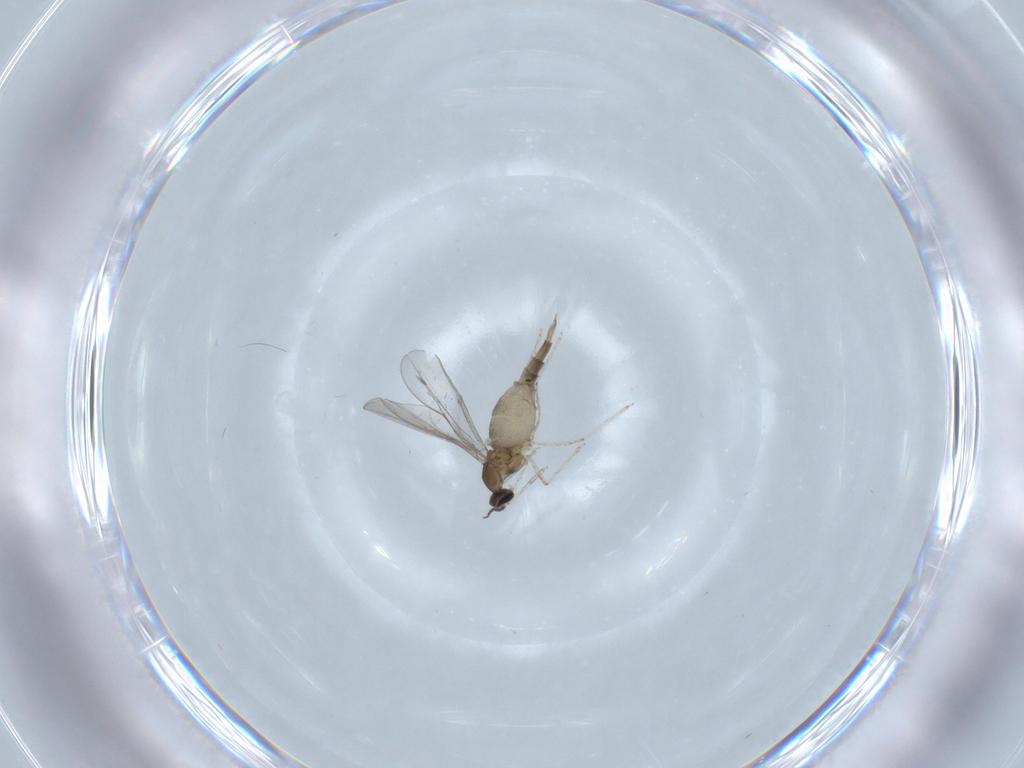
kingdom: Animalia
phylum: Arthropoda
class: Insecta
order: Diptera
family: Cecidomyiidae
